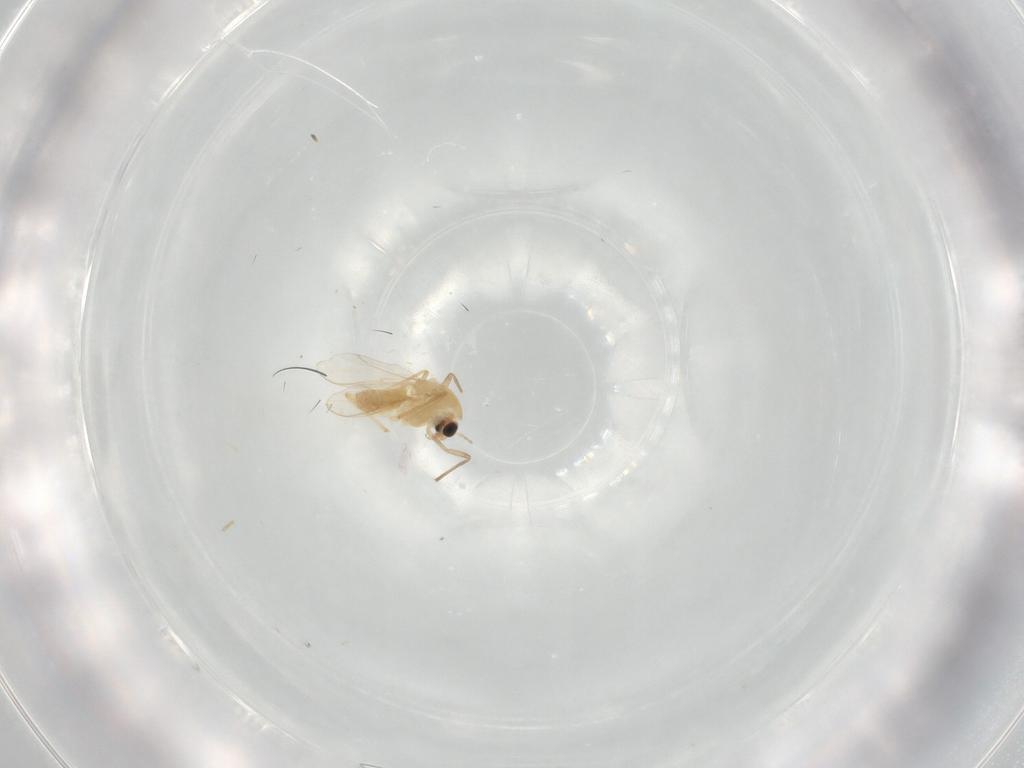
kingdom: Animalia
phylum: Arthropoda
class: Insecta
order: Diptera
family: Chironomidae
